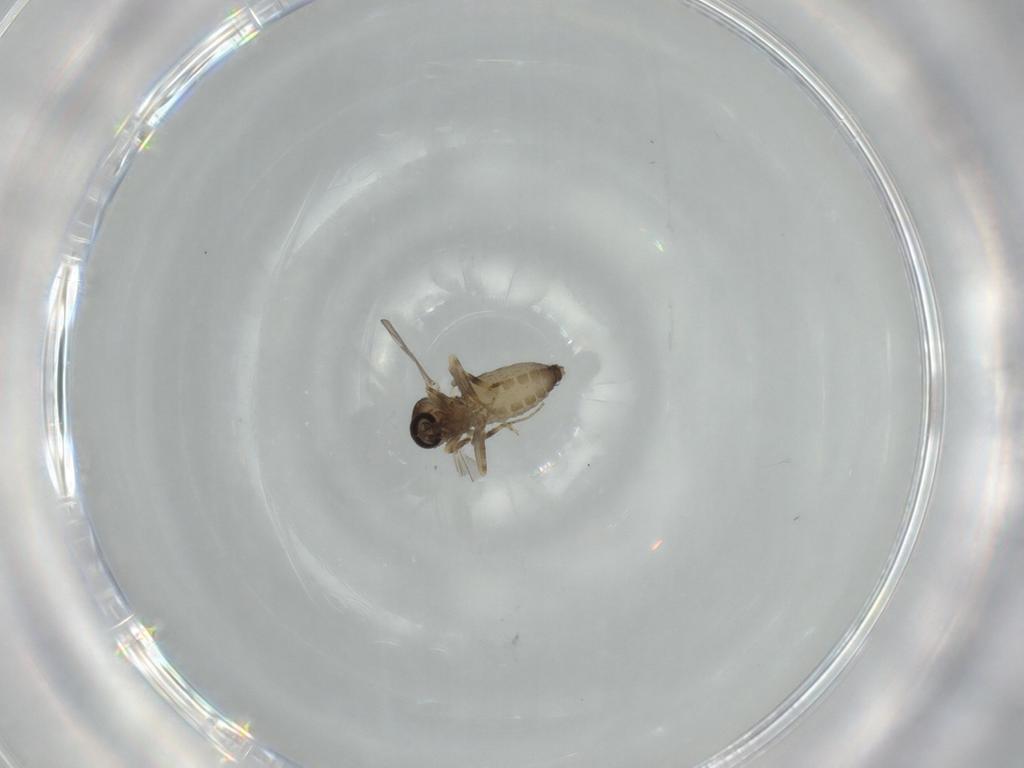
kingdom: Animalia
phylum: Arthropoda
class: Insecta
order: Diptera
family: Ceratopogonidae
